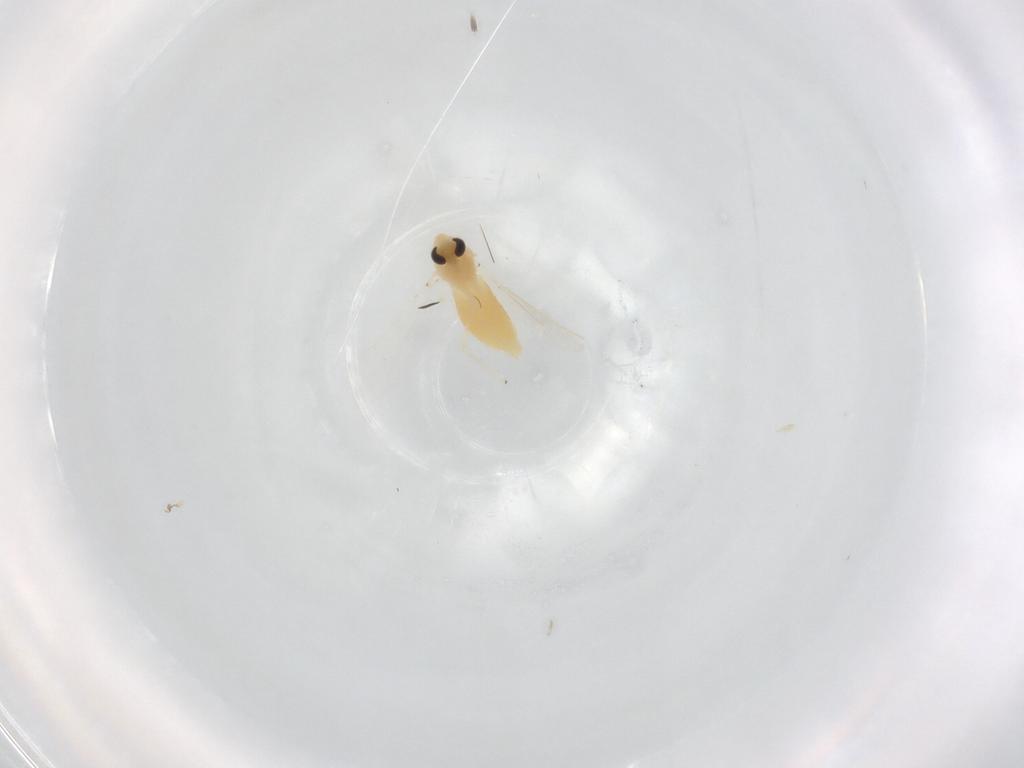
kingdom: Animalia
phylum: Arthropoda
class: Insecta
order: Diptera
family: Chironomidae
